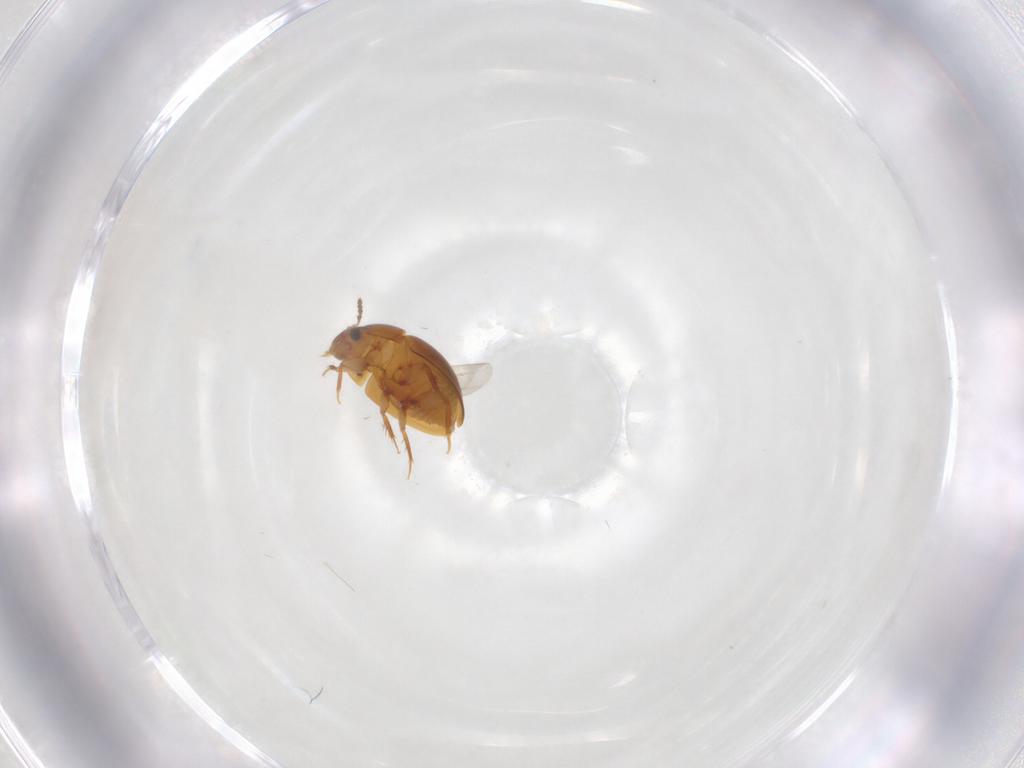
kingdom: Animalia
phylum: Arthropoda
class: Insecta
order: Coleoptera
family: Leiodidae
